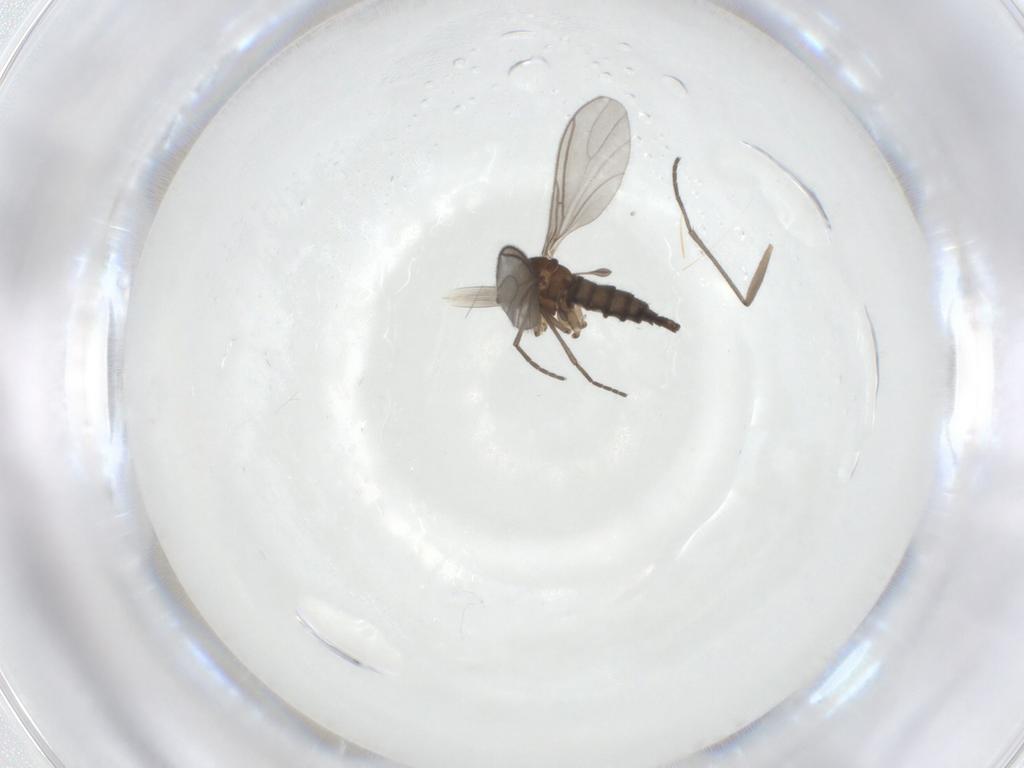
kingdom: Animalia
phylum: Arthropoda
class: Insecta
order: Diptera
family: Sciaridae
